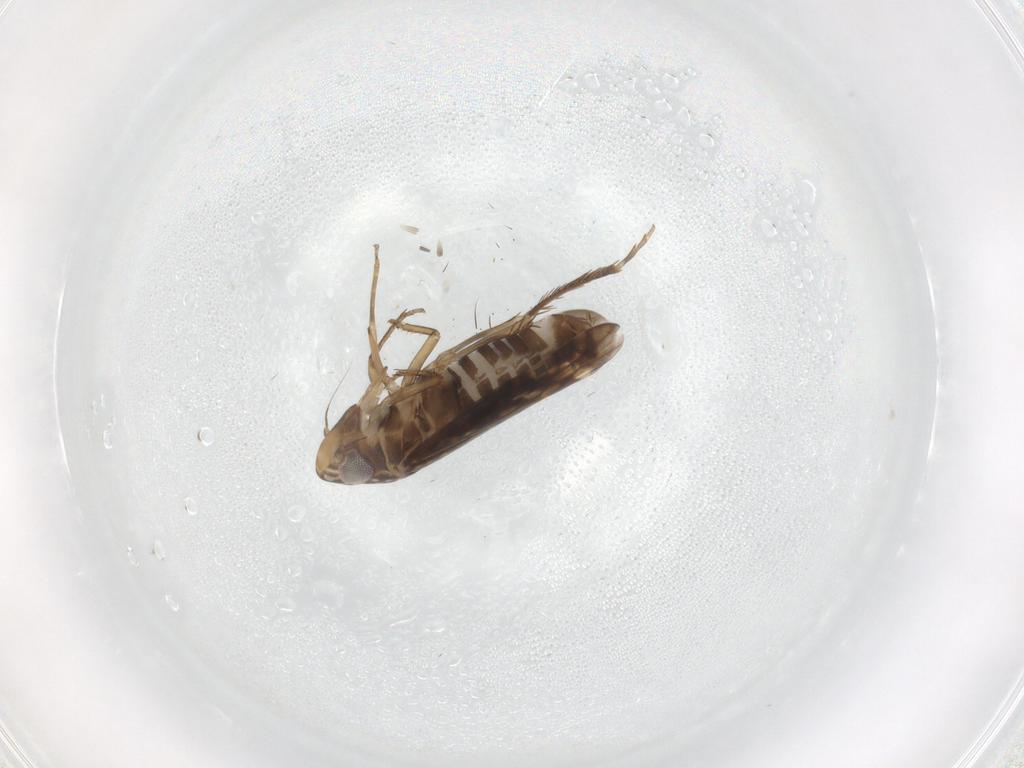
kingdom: Animalia
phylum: Arthropoda
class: Insecta
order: Hemiptera
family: Cicadellidae
